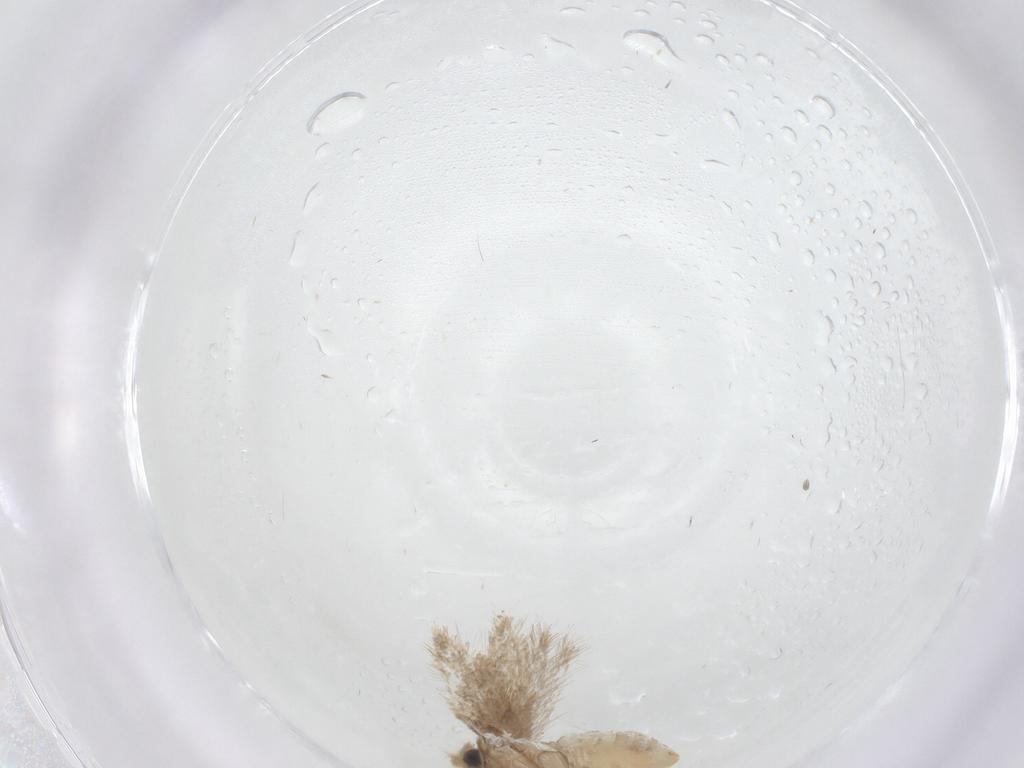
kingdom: Animalia
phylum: Arthropoda
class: Insecta
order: Lepidoptera
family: Nepticulidae
